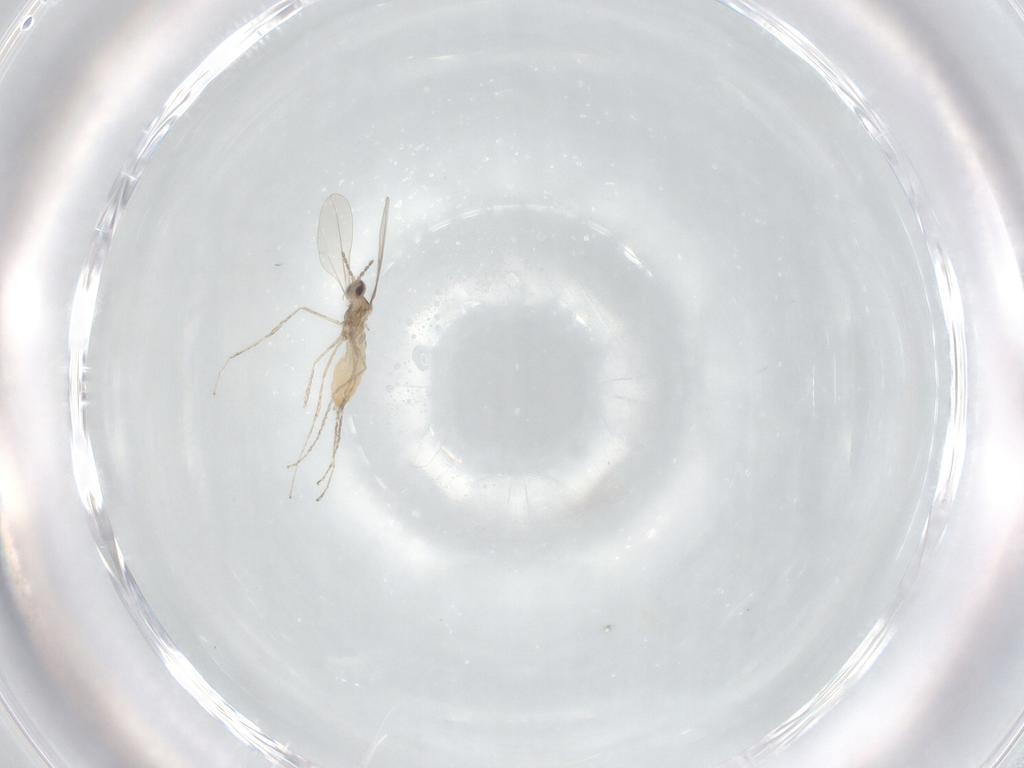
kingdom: Animalia
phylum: Arthropoda
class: Insecta
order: Diptera
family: Cecidomyiidae
